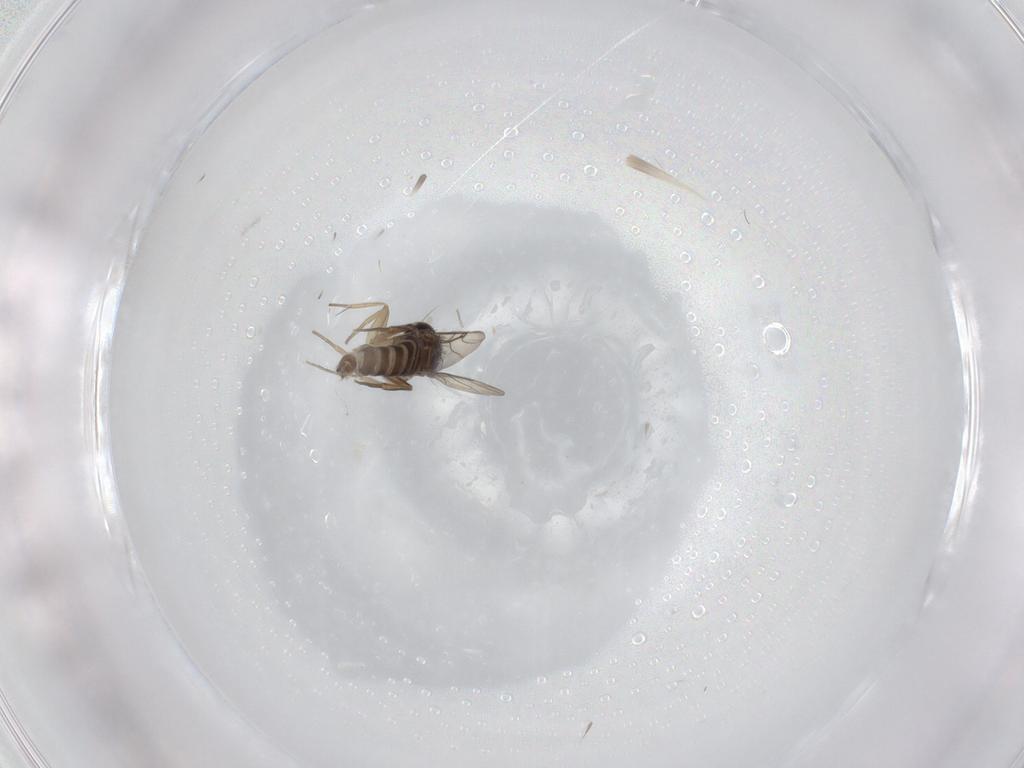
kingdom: Animalia
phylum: Arthropoda
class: Insecta
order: Diptera
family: Phoridae
